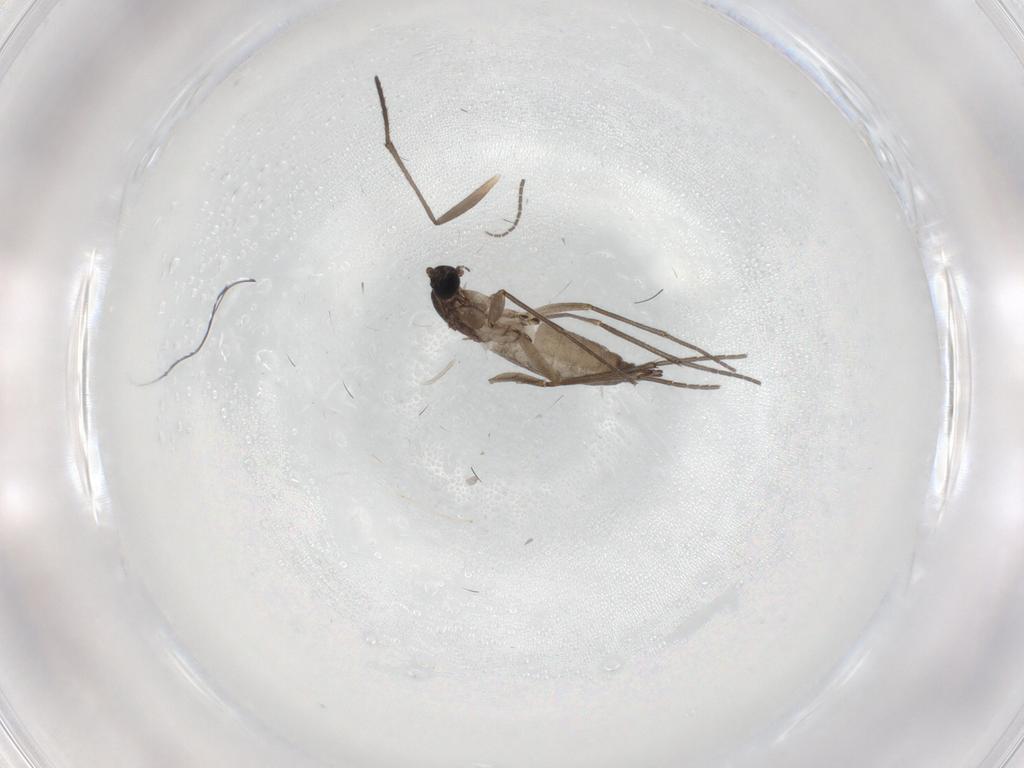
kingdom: Animalia
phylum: Arthropoda
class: Insecta
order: Diptera
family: Sciaridae
